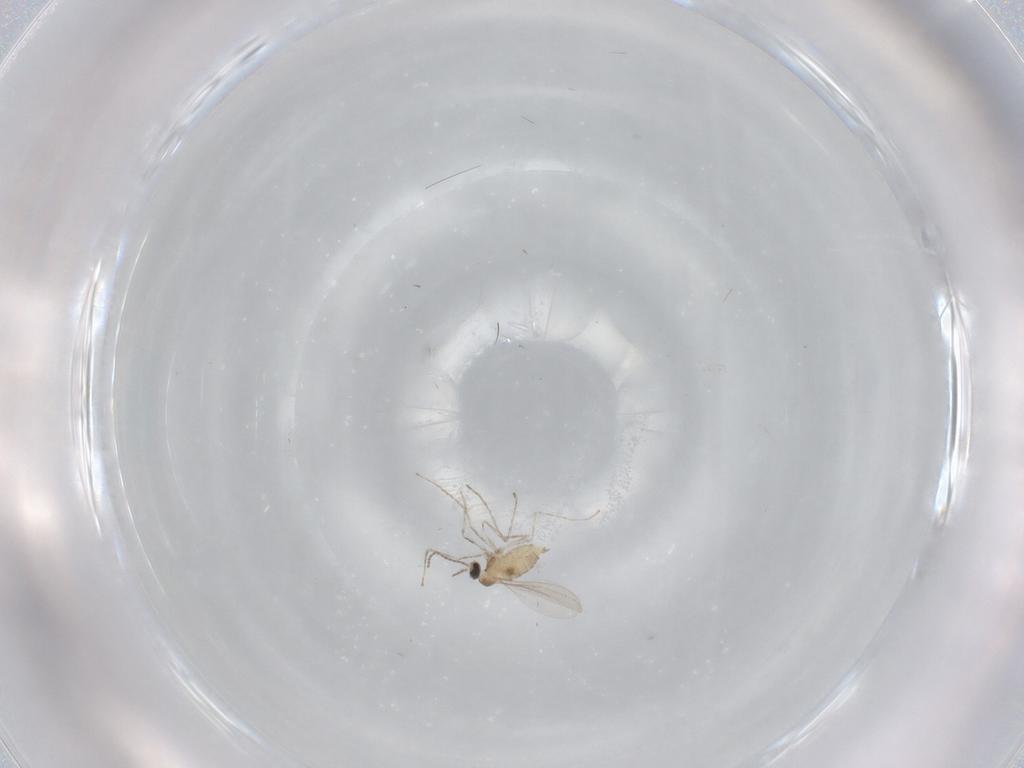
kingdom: Animalia
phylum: Arthropoda
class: Insecta
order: Diptera
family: Cecidomyiidae
